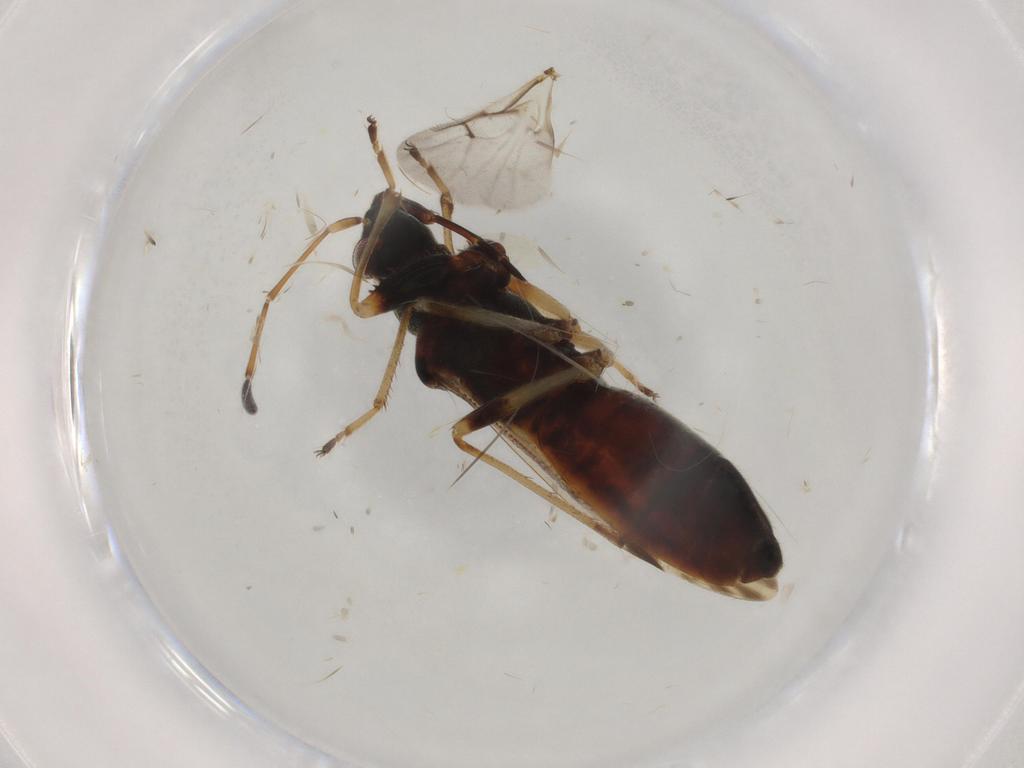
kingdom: Animalia
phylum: Arthropoda
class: Insecta
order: Hemiptera
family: Rhyparochromidae
